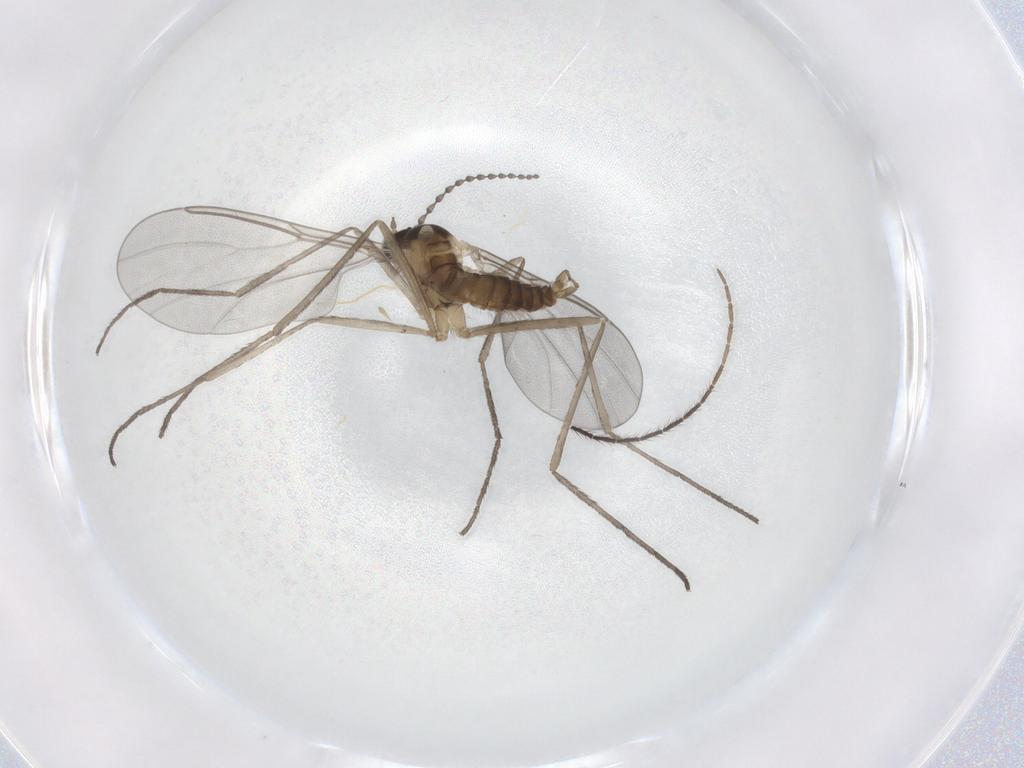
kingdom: Animalia
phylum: Arthropoda
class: Insecta
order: Diptera
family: Cecidomyiidae
